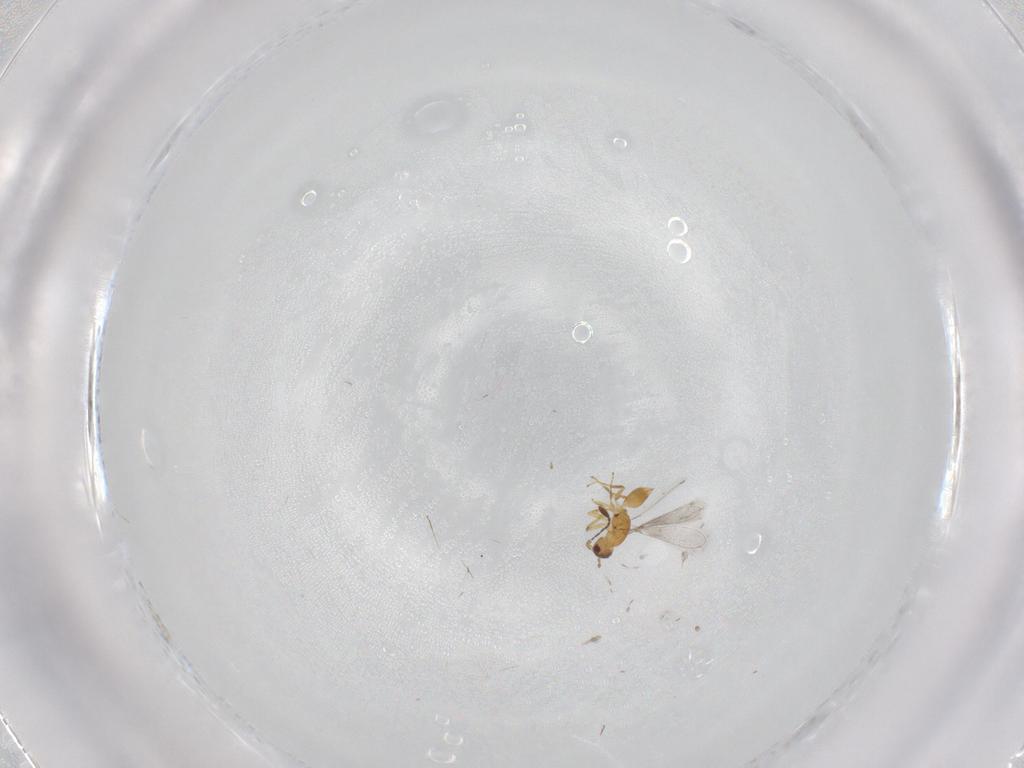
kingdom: Animalia
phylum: Arthropoda
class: Insecta
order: Hymenoptera
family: Mymaridae
